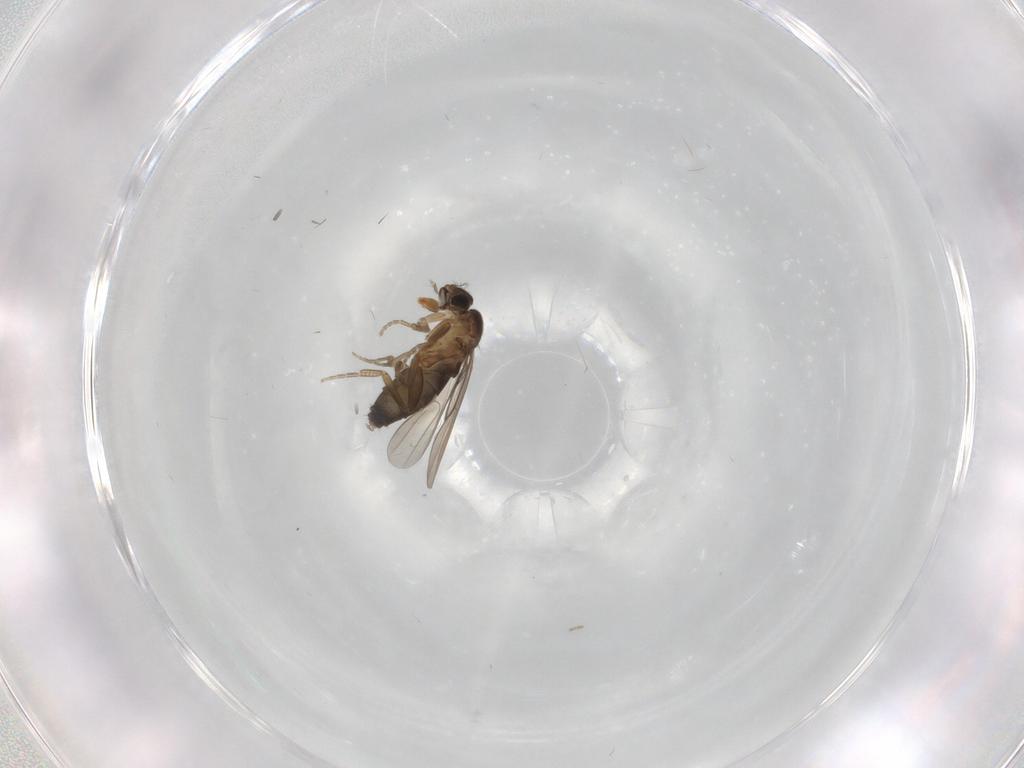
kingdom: Animalia
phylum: Arthropoda
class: Insecta
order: Diptera
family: Phoridae
